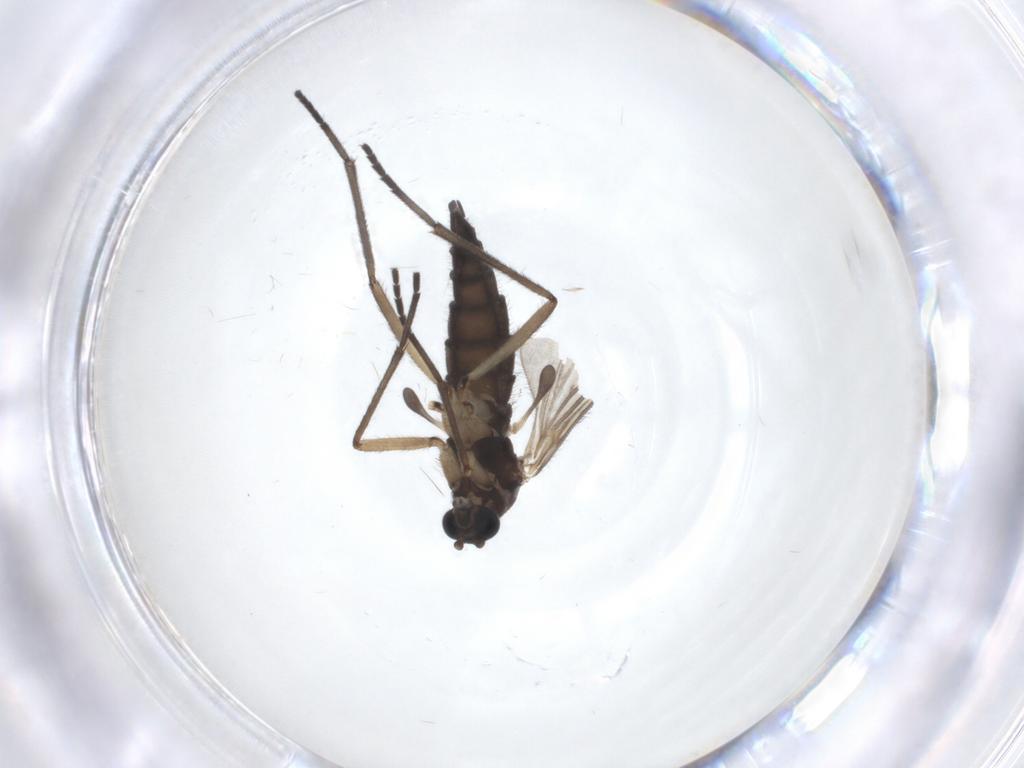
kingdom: Animalia
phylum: Arthropoda
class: Insecta
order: Diptera
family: Sciaridae
